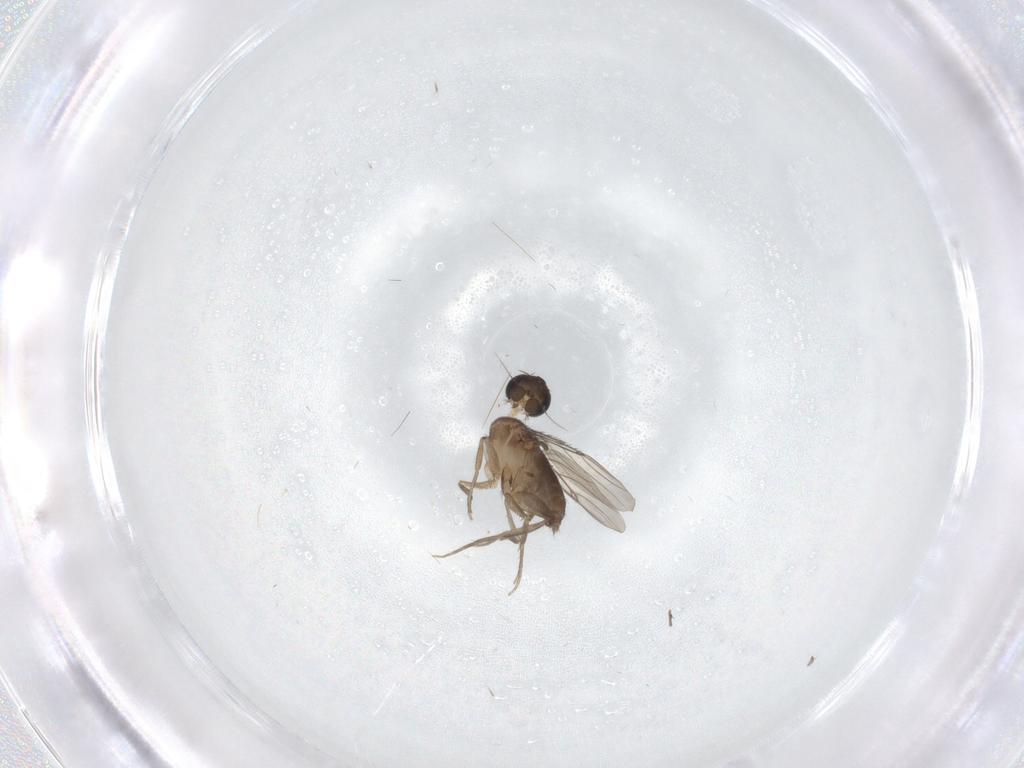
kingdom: Animalia
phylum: Arthropoda
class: Insecta
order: Diptera
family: Phoridae
